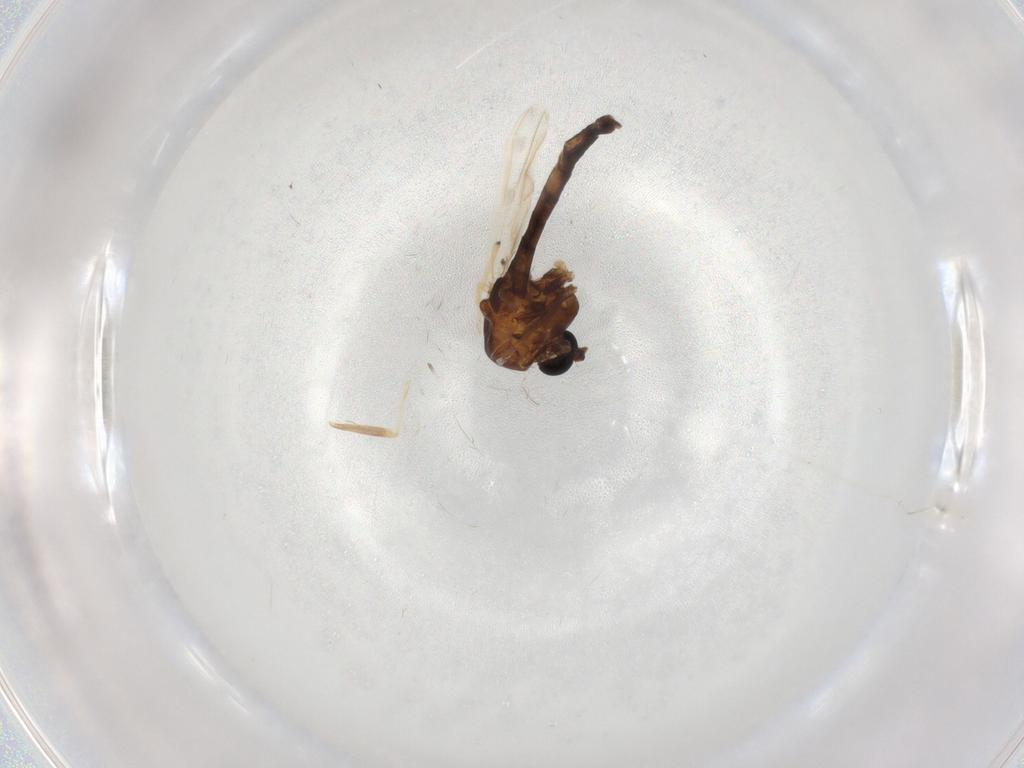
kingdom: Animalia
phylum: Arthropoda
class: Insecta
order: Diptera
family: Chironomidae
